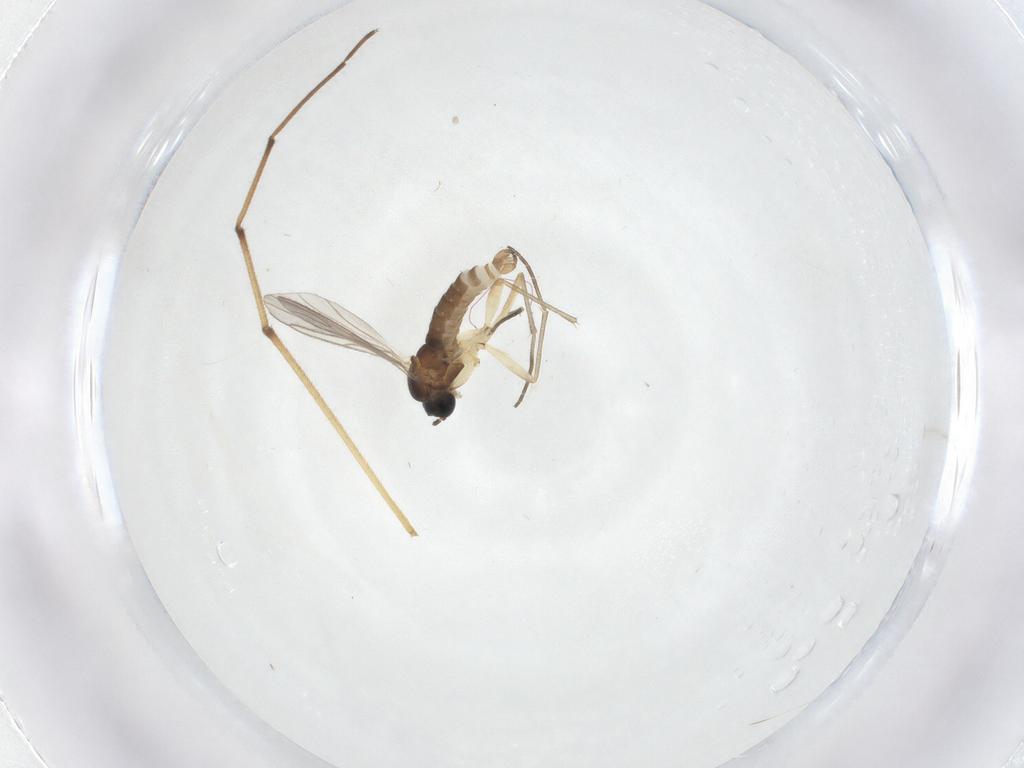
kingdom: Animalia
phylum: Arthropoda
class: Insecta
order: Diptera
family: Sciaridae
